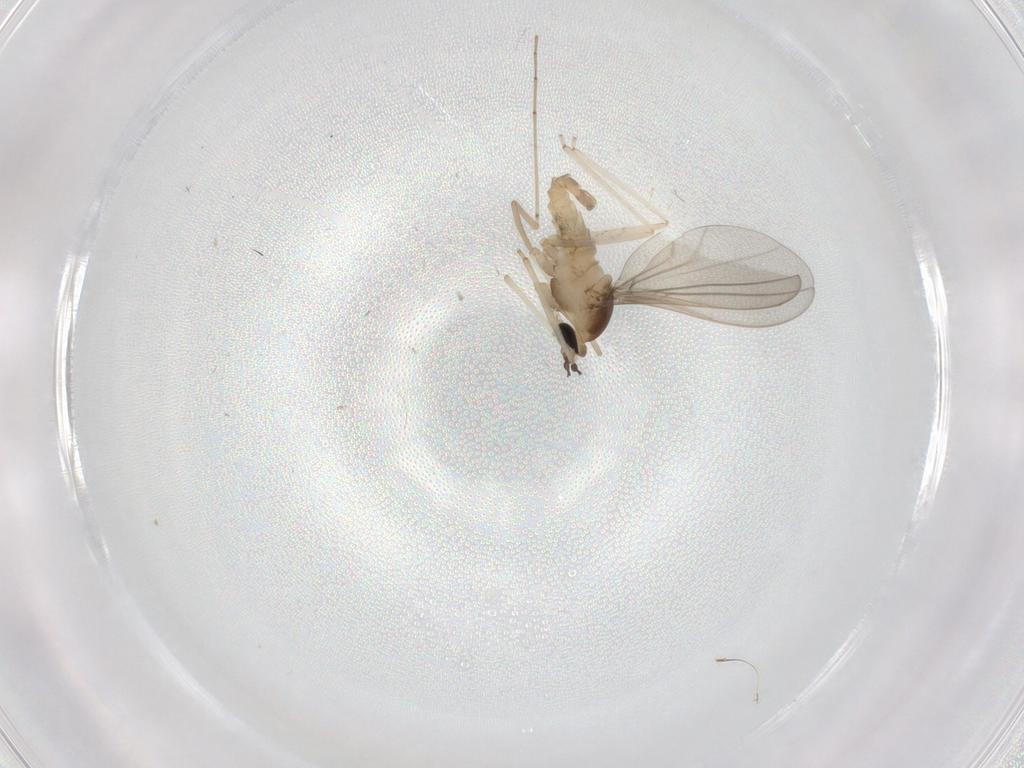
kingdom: Animalia
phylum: Arthropoda
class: Insecta
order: Diptera
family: Cecidomyiidae
